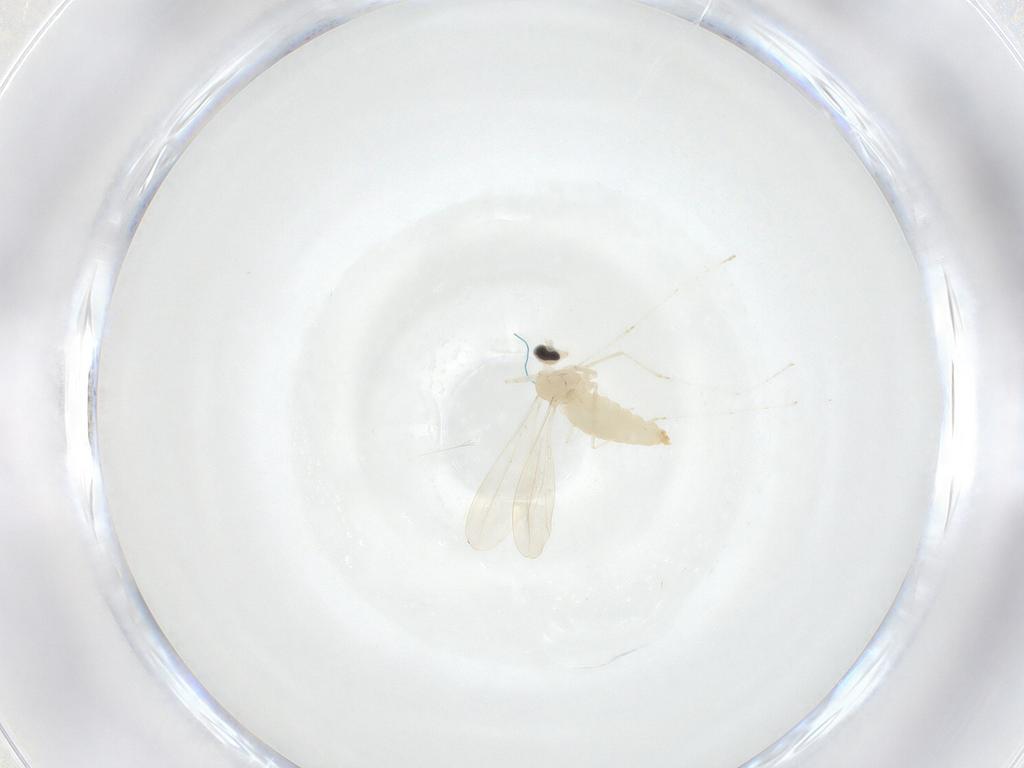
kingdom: Animalia
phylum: Arthropoda
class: Insecta
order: Diptera
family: Cecidomyiidae
